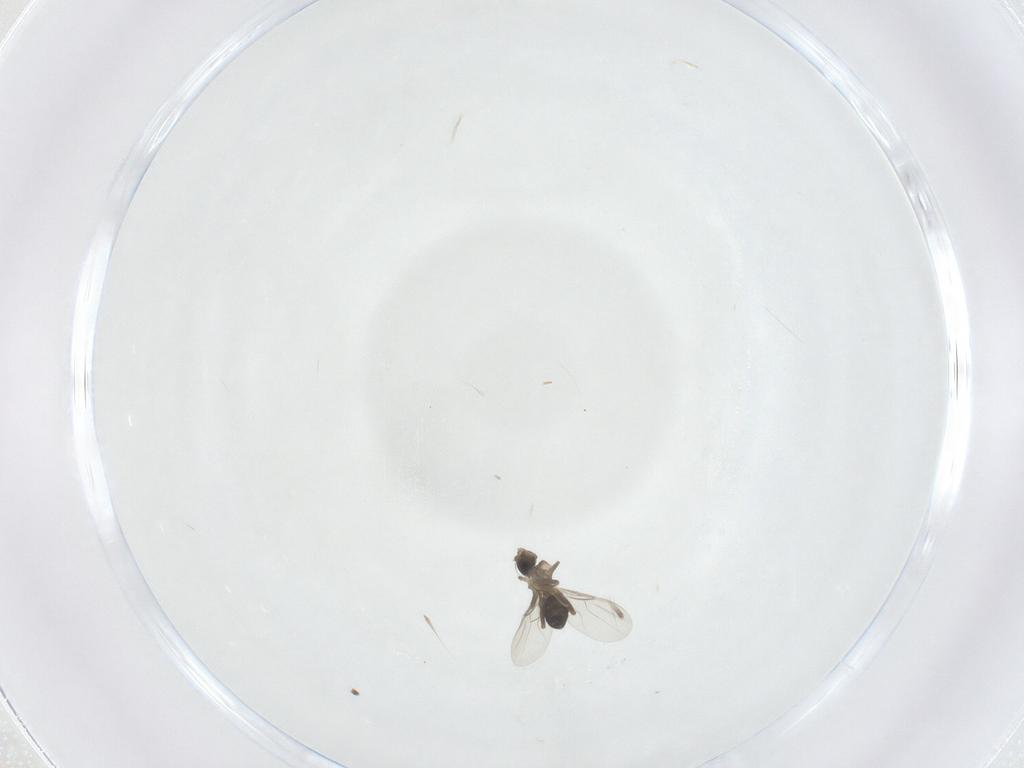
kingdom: Animalia
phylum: Arthropoda
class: Insecta
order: Diptera
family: Phoridae
